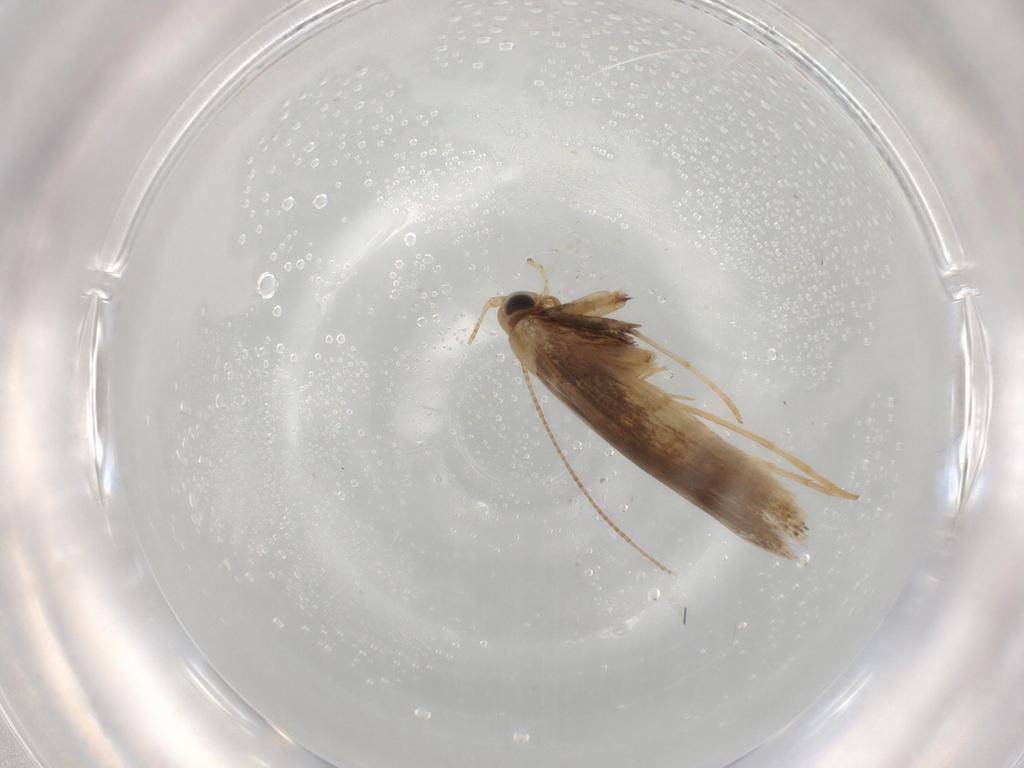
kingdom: Animalia
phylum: Arthropoda
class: Insecta
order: Lepidoptera
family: Gracillariidae
